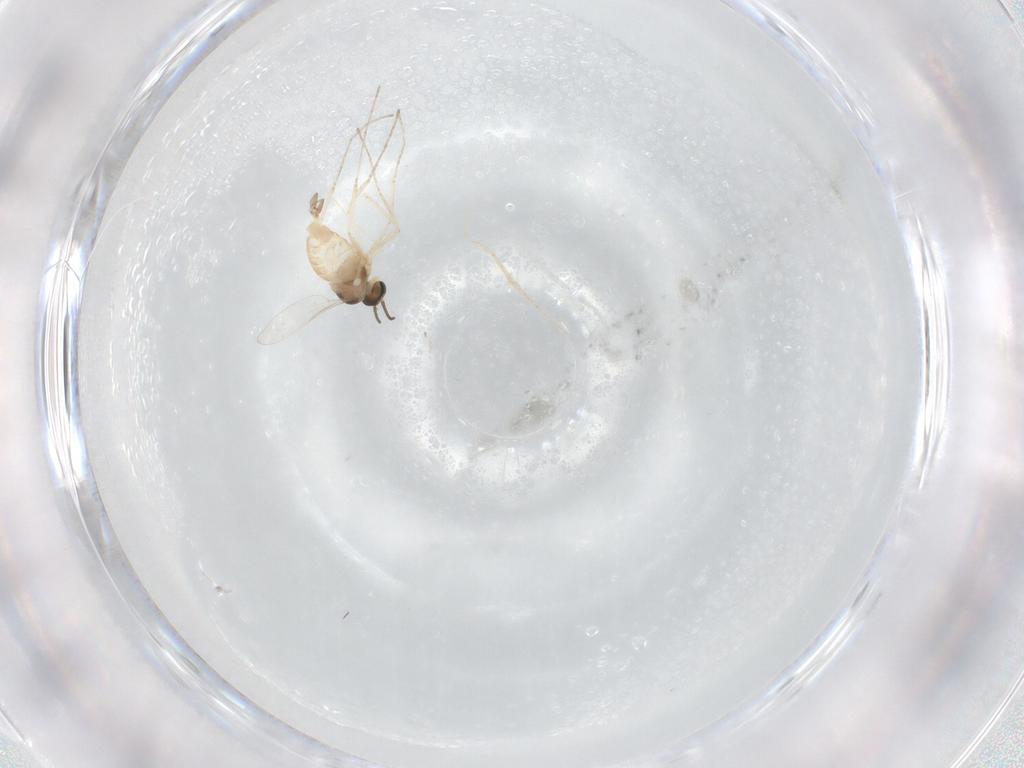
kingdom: Animalia
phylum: Arthropoda
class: Insecta
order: Diptera
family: Cecidomyiidae
